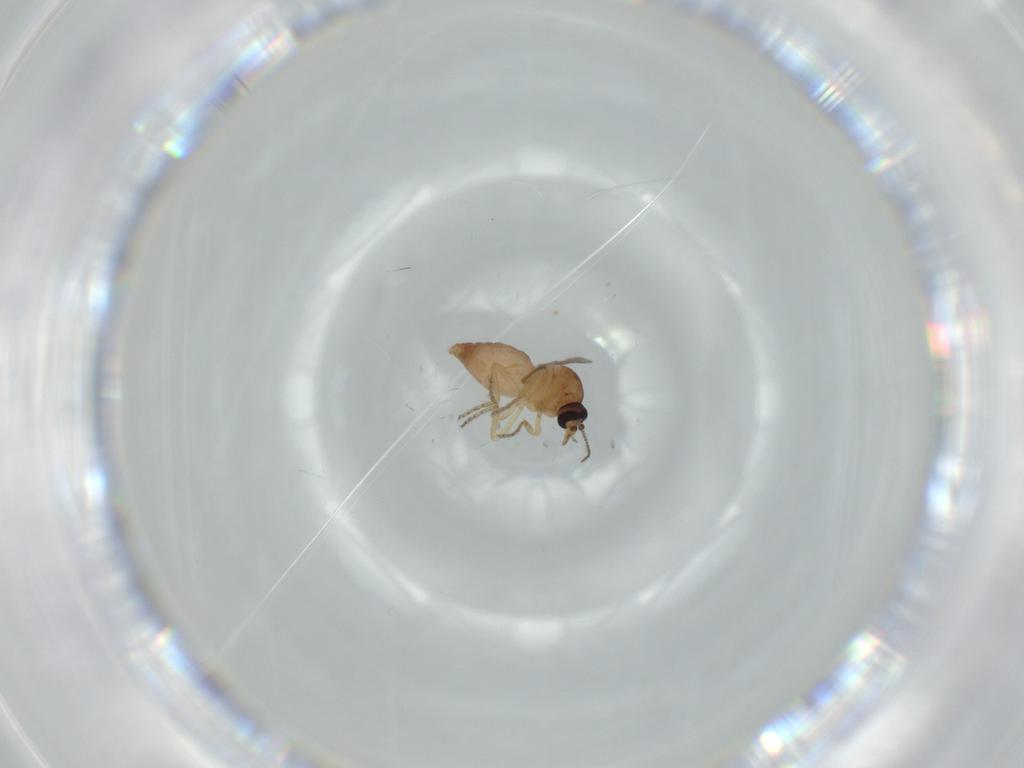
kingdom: Animalia
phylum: Arthropoda
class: Insecta
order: Diptera
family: Ceratopogonidae
